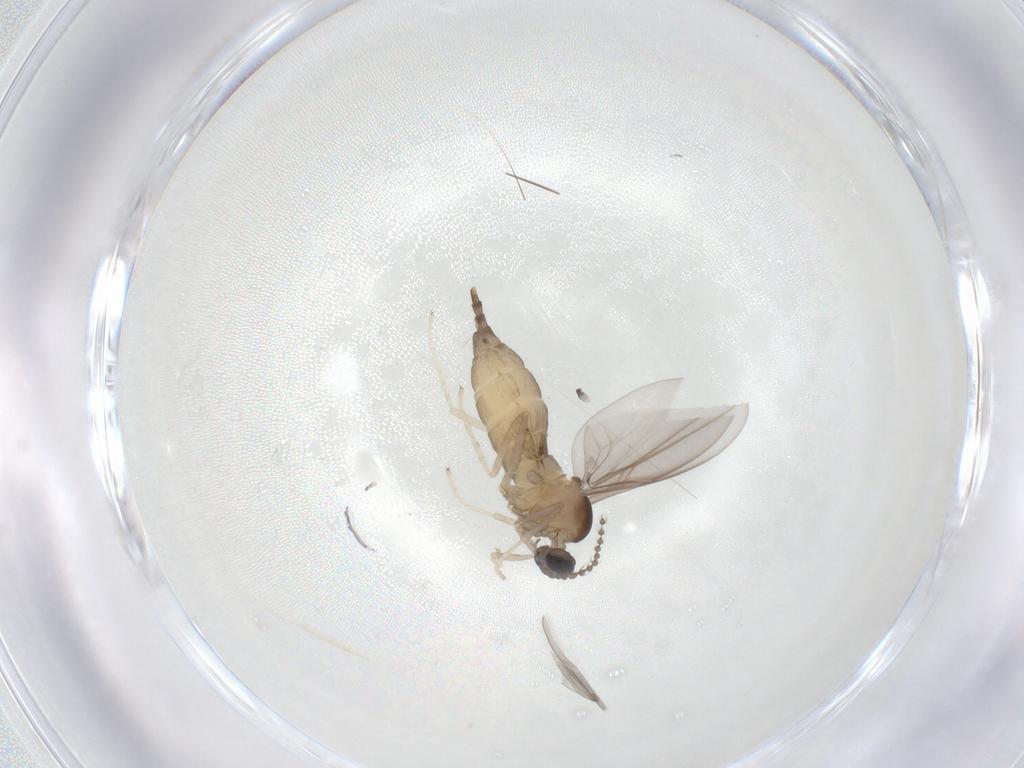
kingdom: Animalia
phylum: Arthropoda
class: Insecta
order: Diptera
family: Cecidomyiidae
